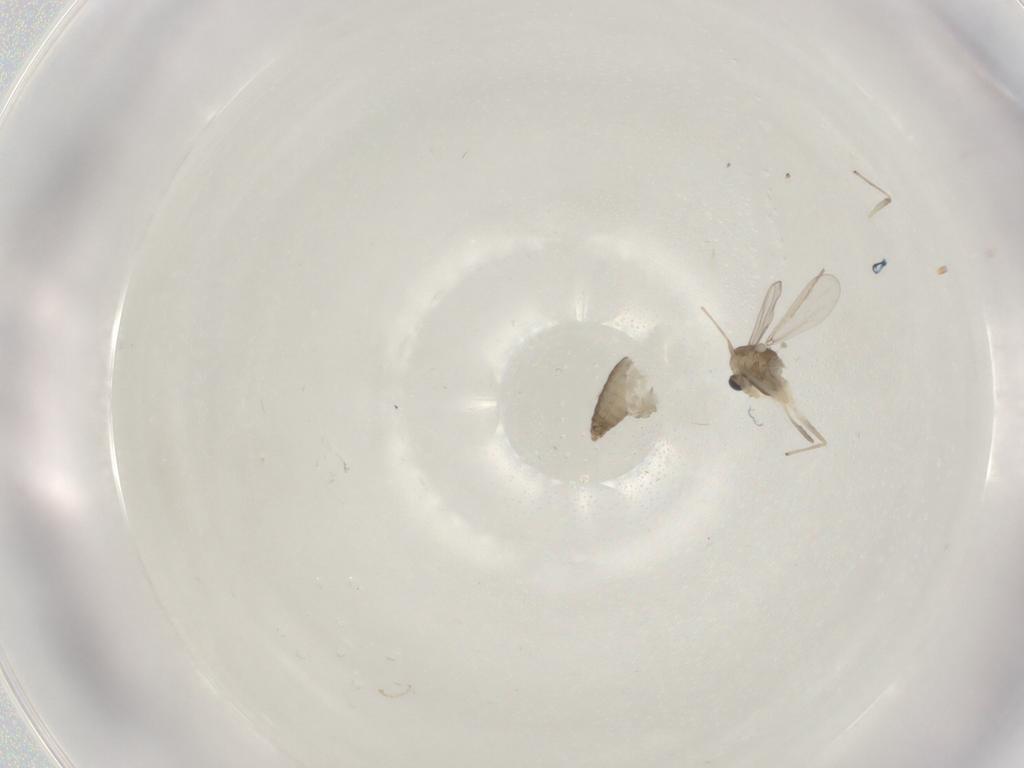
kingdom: Animalia
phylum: Arthropoda
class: Insecta
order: Diptera
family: Chironomidae
